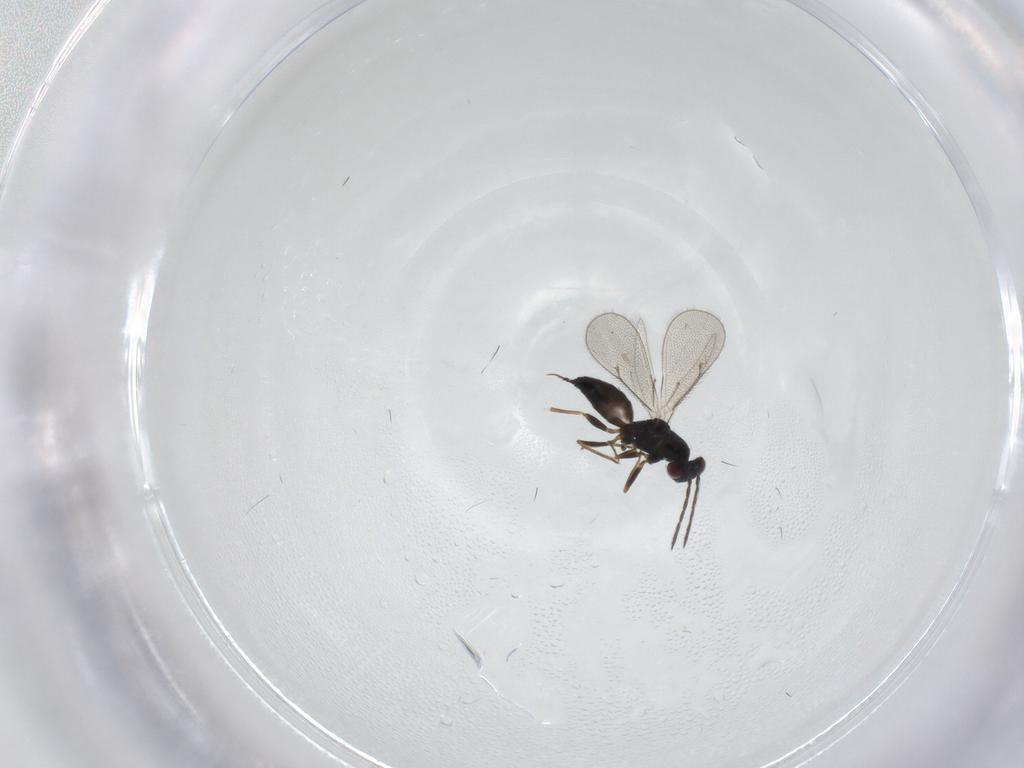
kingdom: Animalia
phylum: Arthropoda
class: Insecta
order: Hymenoptera
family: Eulophidae
